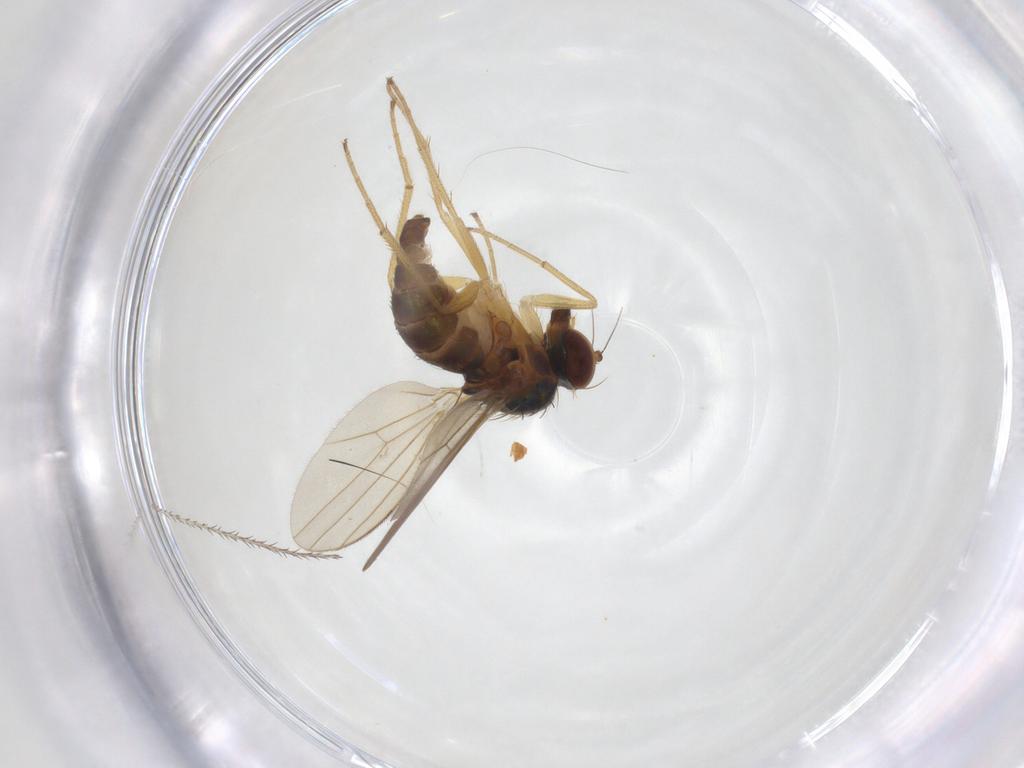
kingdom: Animalia
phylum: Arthropoda
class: Insecta
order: Diptera
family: Dolichopodidae
